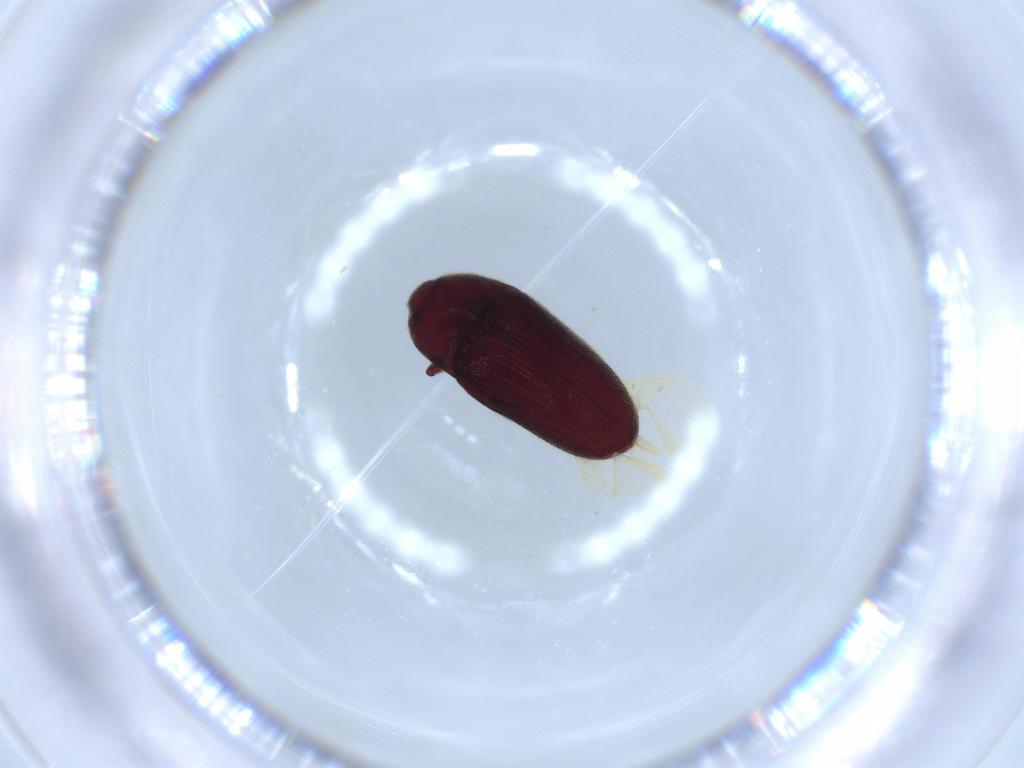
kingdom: Animalia
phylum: Arthropoda
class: Insecta
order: Coleoptera
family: Throscidae
